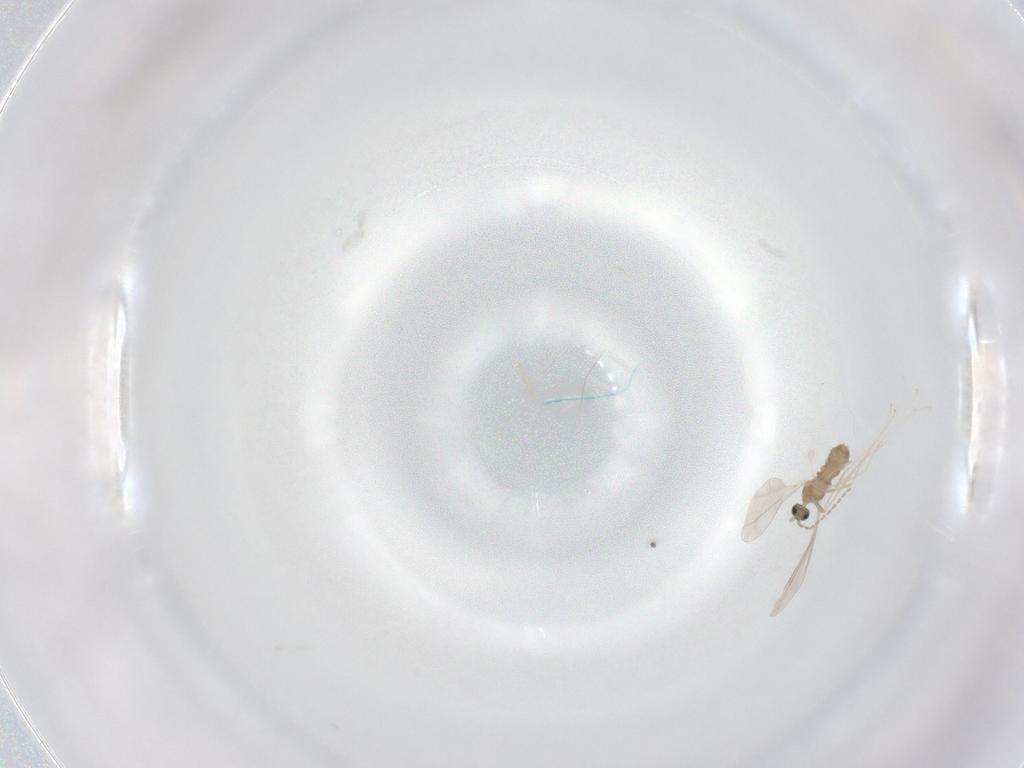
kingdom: Animalia
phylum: Arthropoda
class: Insecta
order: Diptera
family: Cecidomyiidae
